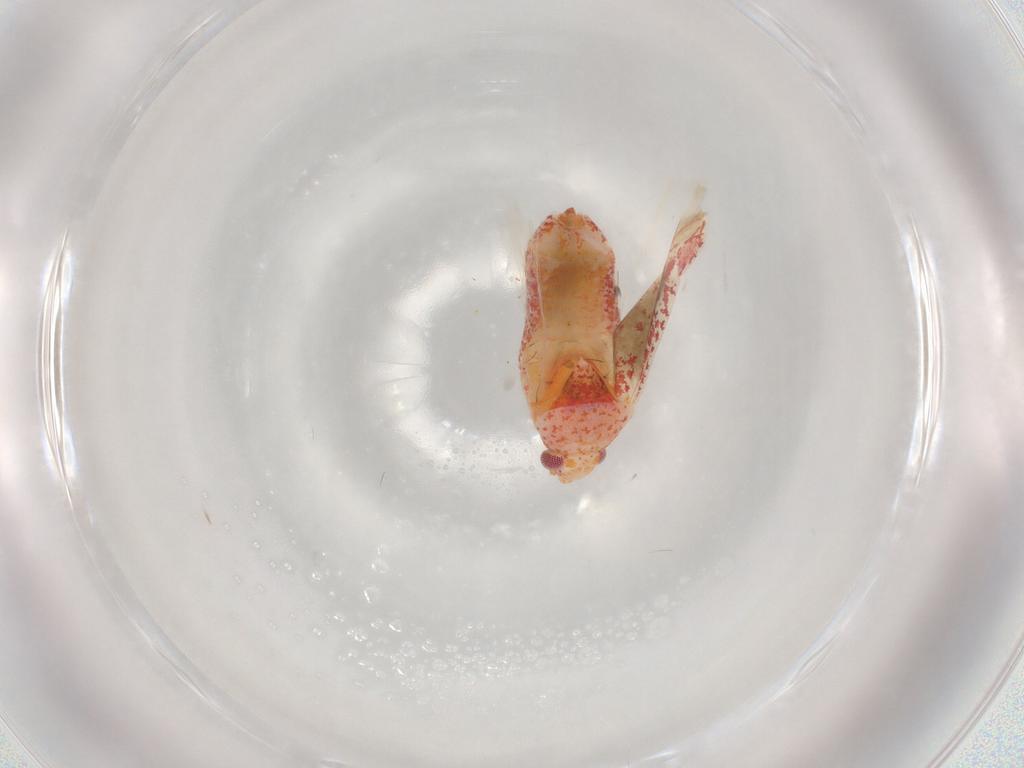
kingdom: Animalia
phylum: Arthropoda
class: Insecta
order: Hemiptera
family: Miridae
